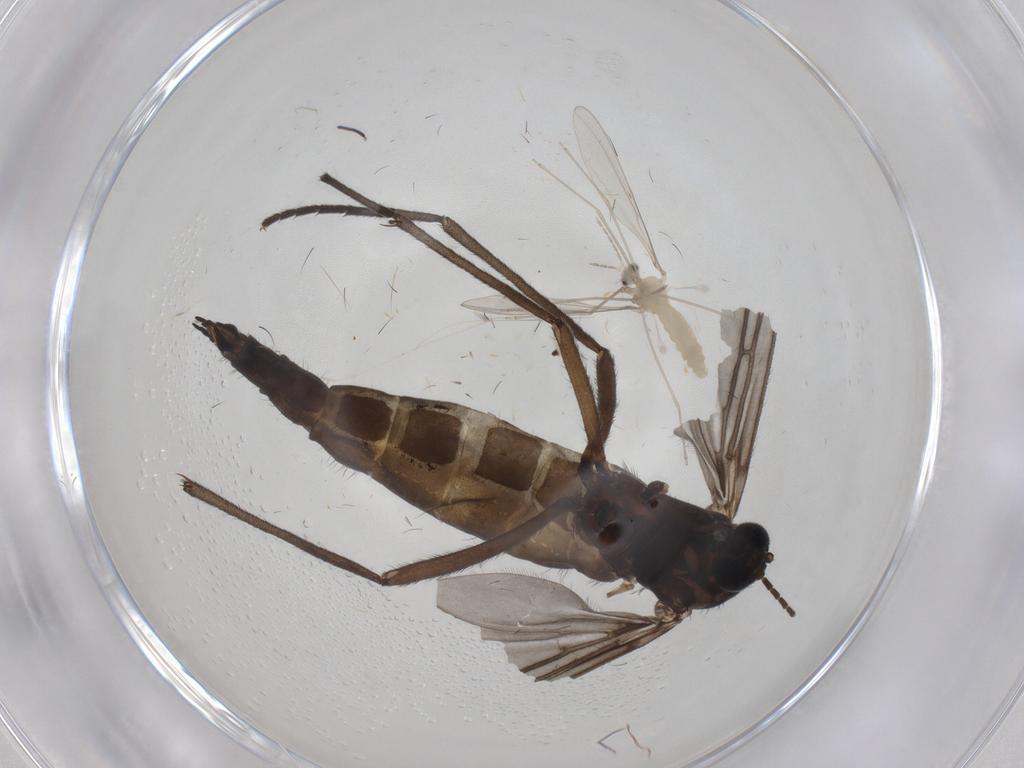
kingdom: Animalia
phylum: Arthropoda
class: Insecta
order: Diptera
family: Sciaridae
